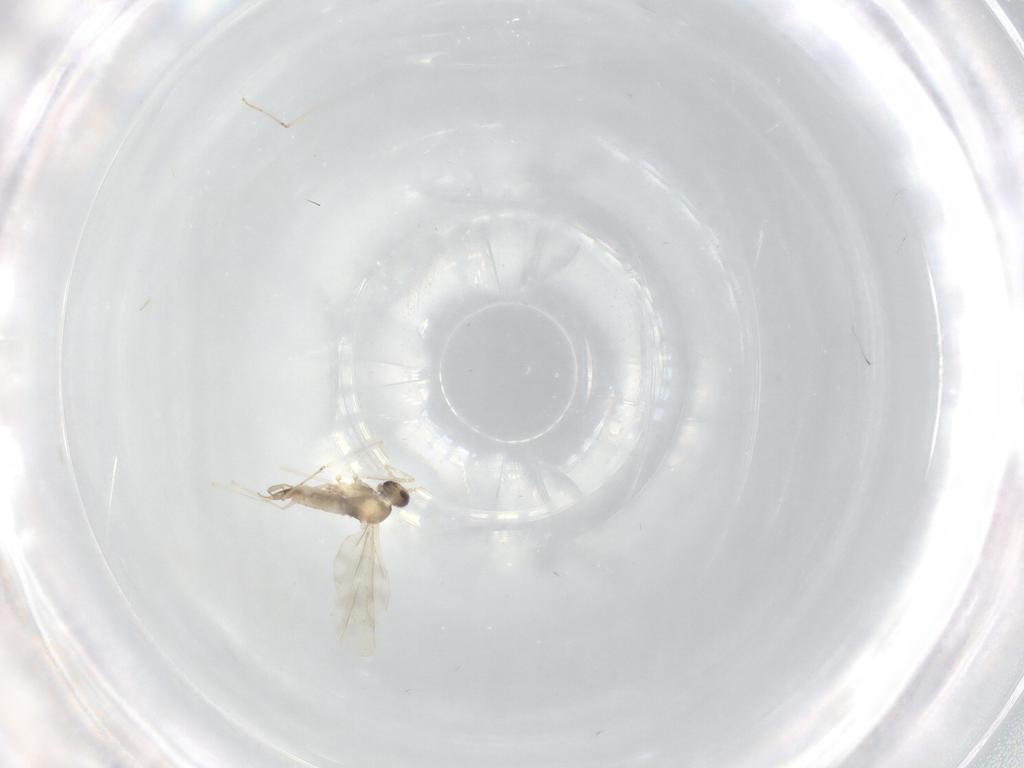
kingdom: Animalia
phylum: Arthropoda
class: Insecta
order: Diptera
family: Cecidomyiidae
